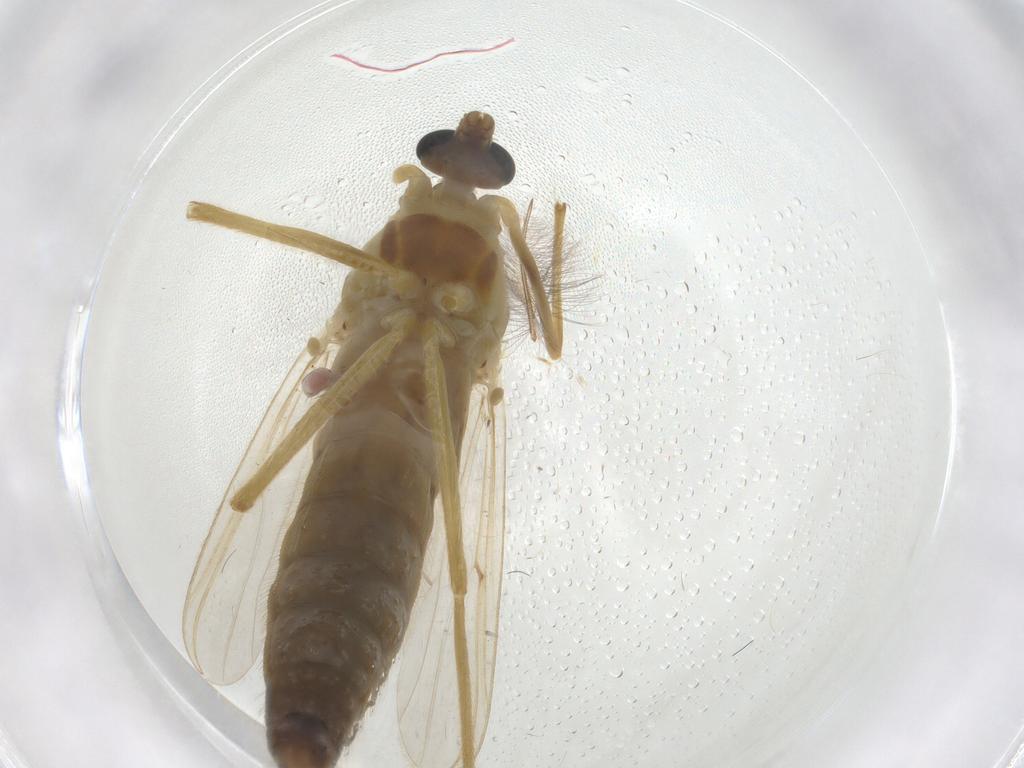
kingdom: Animalia
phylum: Arthropoda
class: Insecta
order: Diptera
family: Chironomidae
